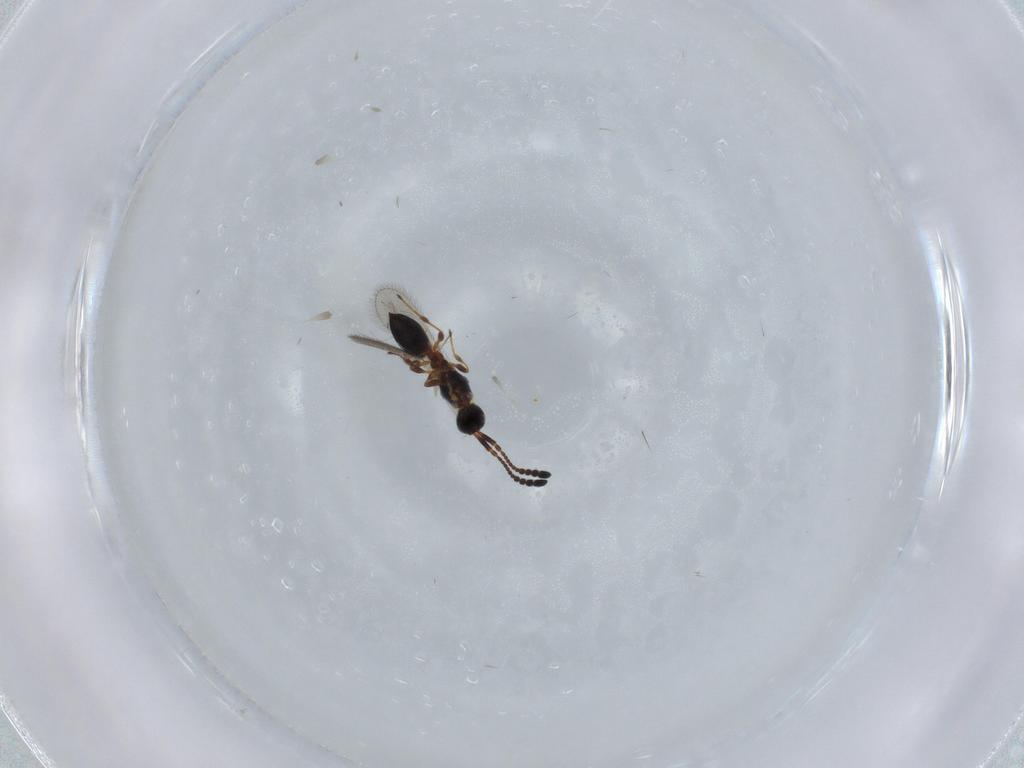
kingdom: Animalia
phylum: Arthropoda
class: Insecta
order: Hymenoptera
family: Diapriidae
